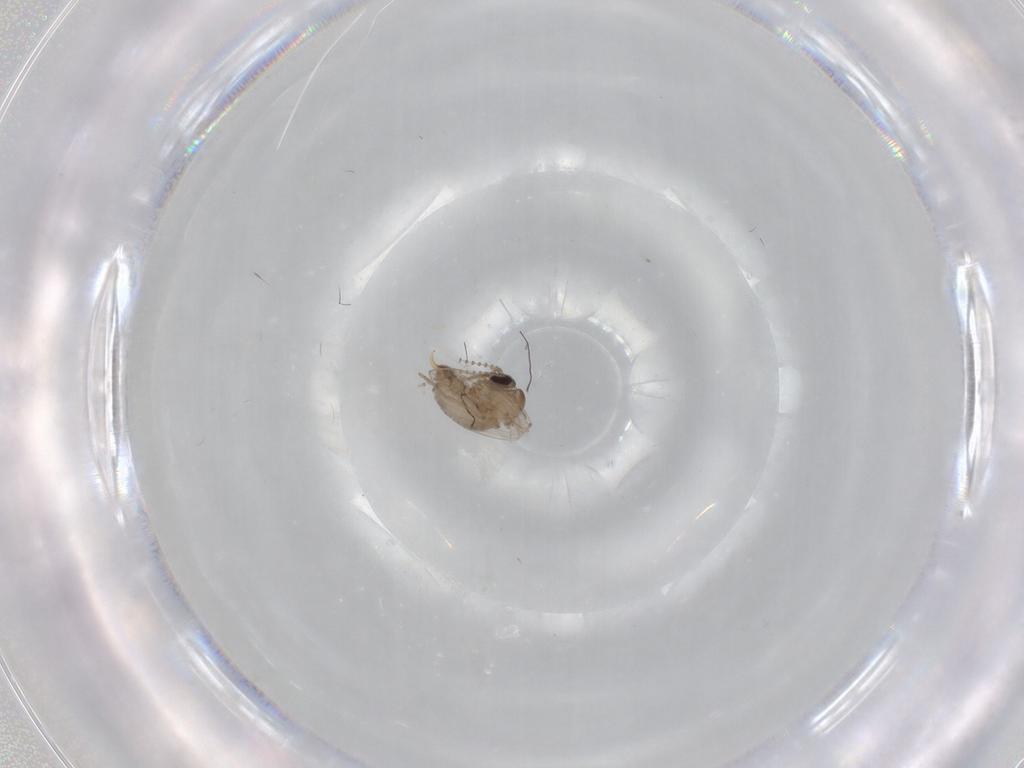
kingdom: Animalia
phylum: Arthropoda
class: Insecta
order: Diptera
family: Psychodidae
